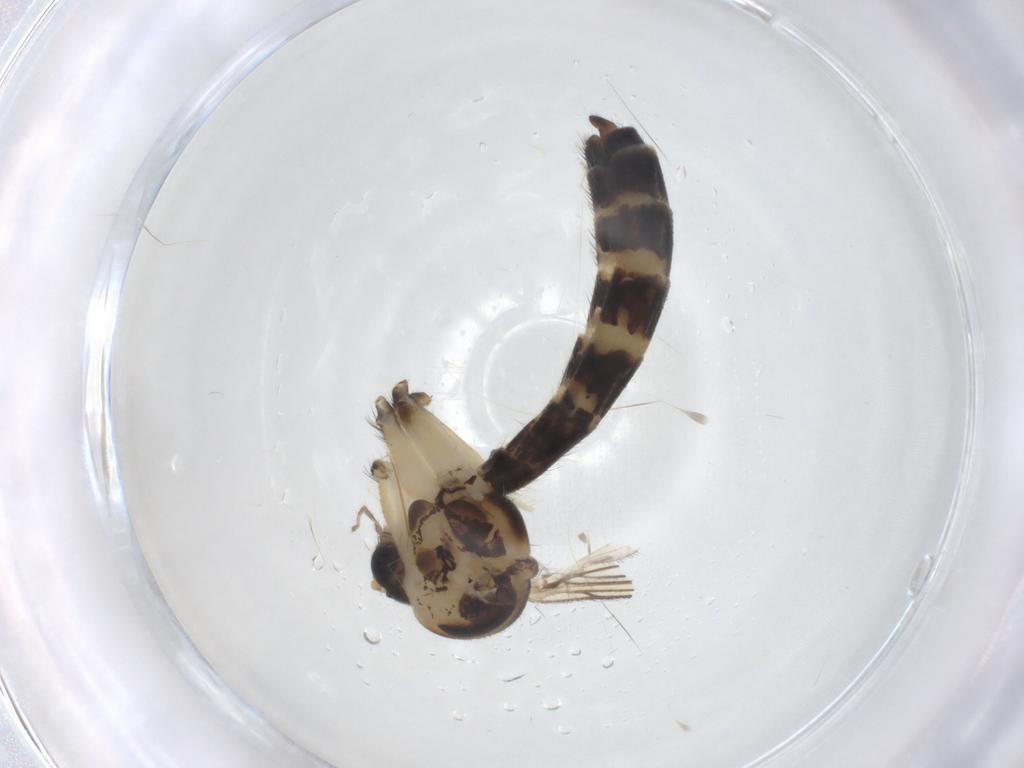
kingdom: Animalia
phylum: Arthropoda
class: Insecta
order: Diptera
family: Mycetophilidae
